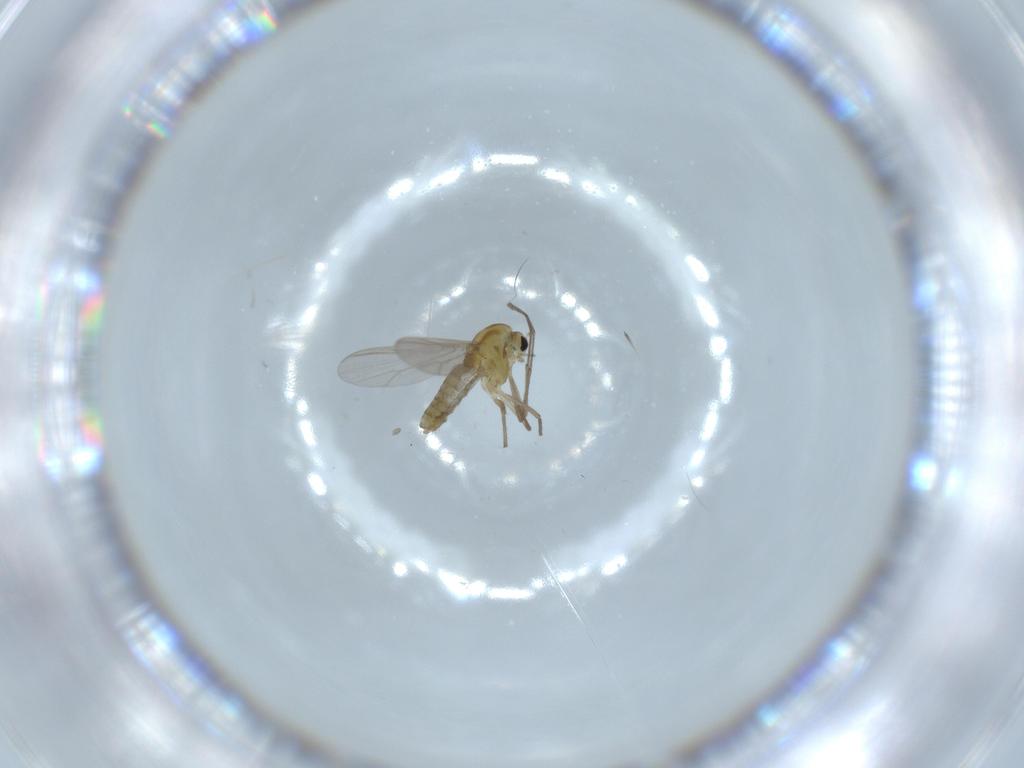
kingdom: Animalia
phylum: Arthropoda
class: Insecta
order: Diptera
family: Chironomidae
